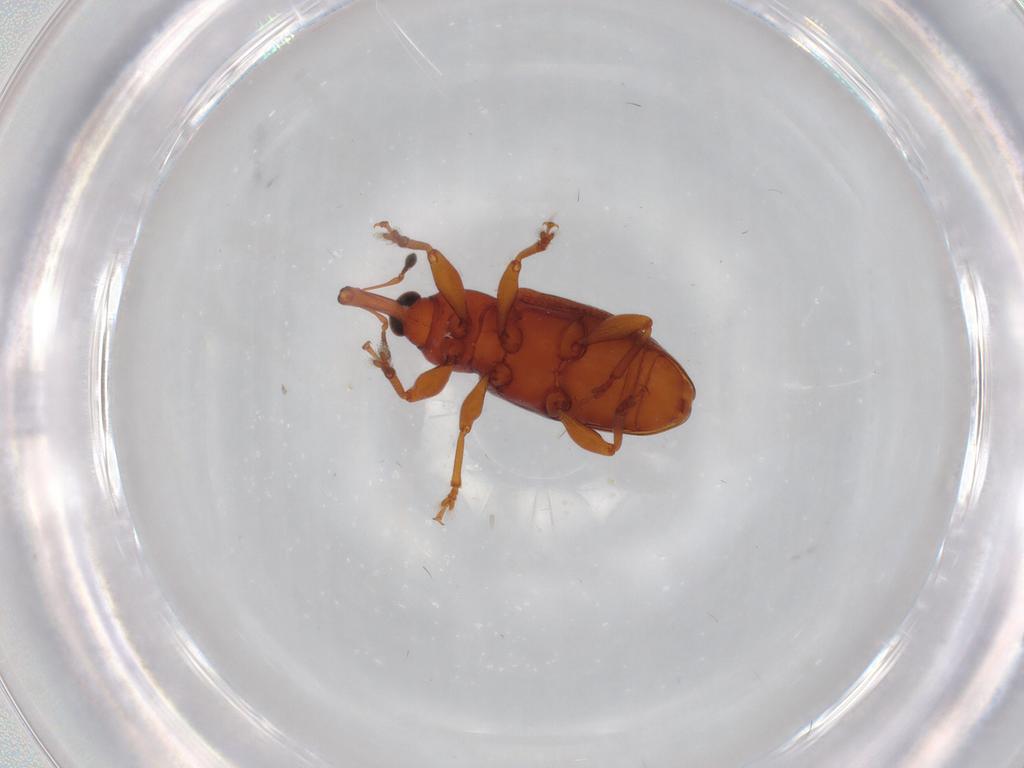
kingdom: Animalia
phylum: Arthropoda
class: Insecta
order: Coleoptera
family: Curculionidae
